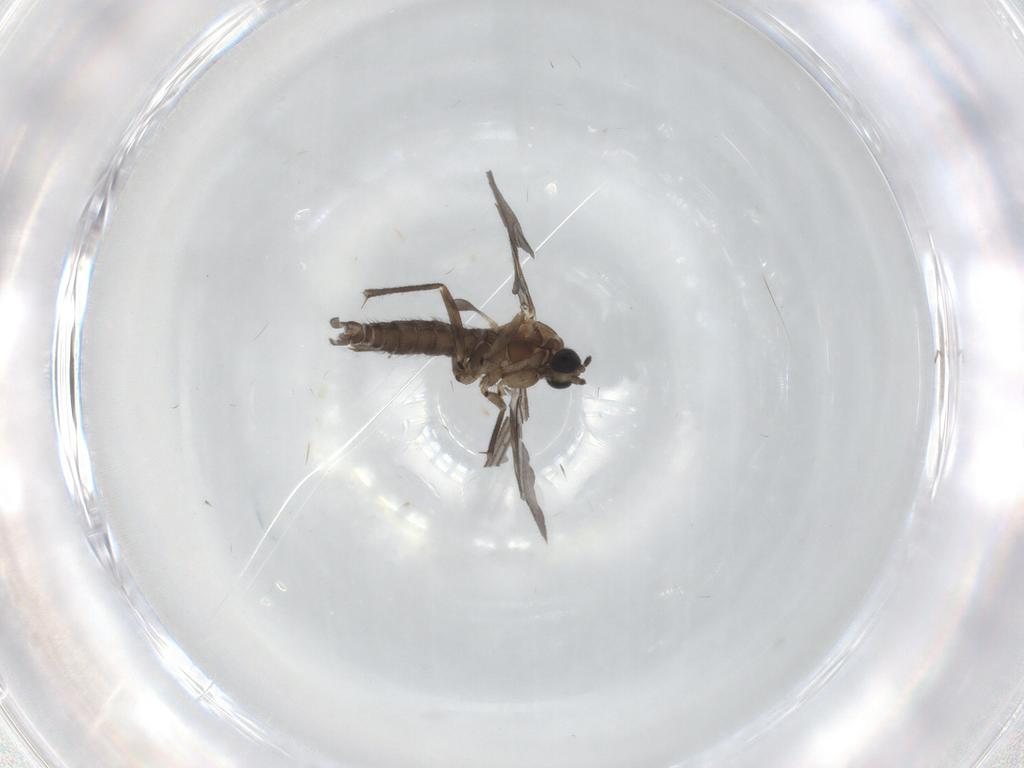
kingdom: Animalia
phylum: Arthropoda
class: Insecta
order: Diptera
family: Sciaridae
